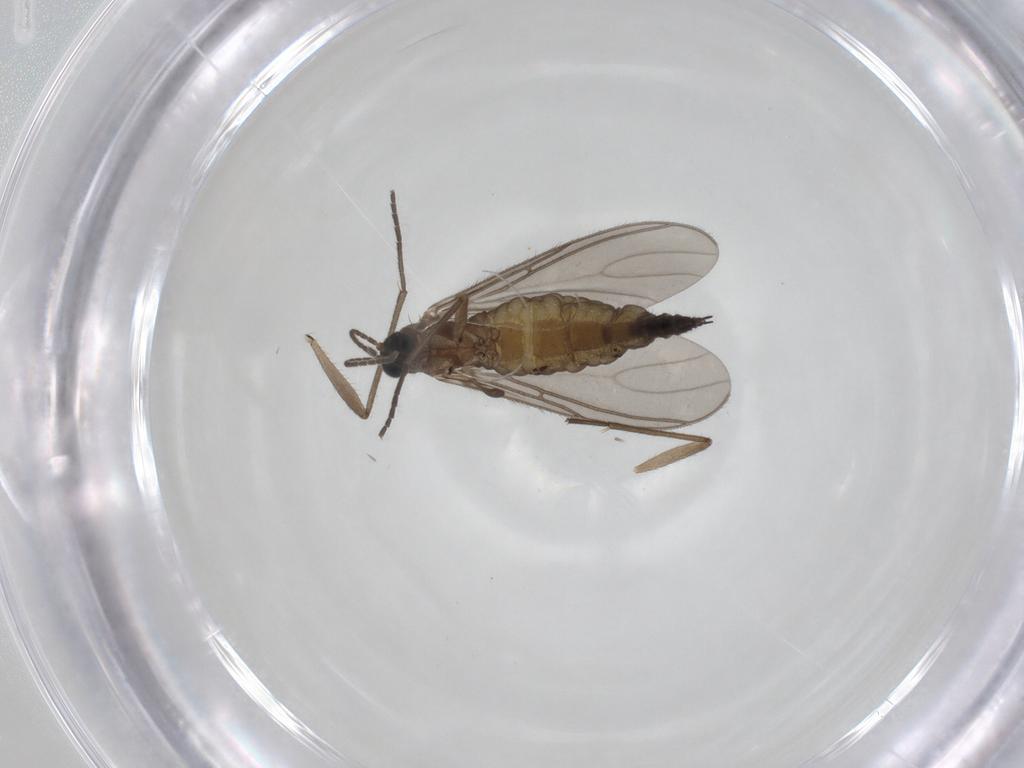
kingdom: Animalia
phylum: Arthropoda
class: Insecta
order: Diptera
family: Sciaridae
